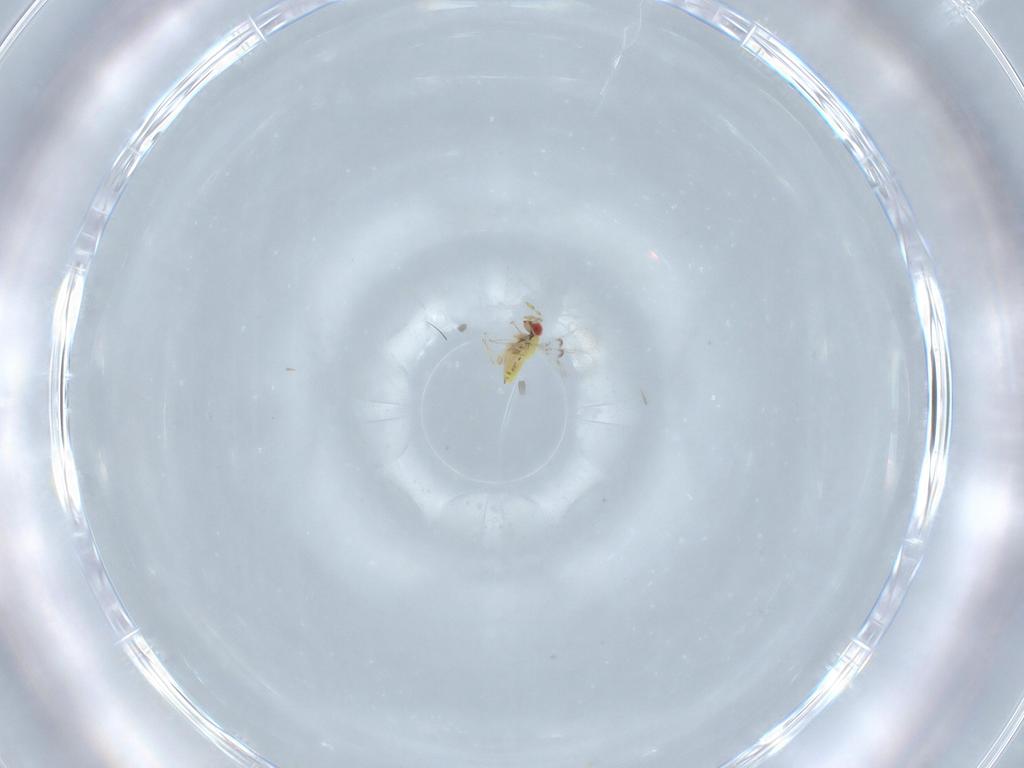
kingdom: Animalia
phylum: Arthropoda
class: Insecta
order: Hymenoptera
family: Trichogrammatidae
